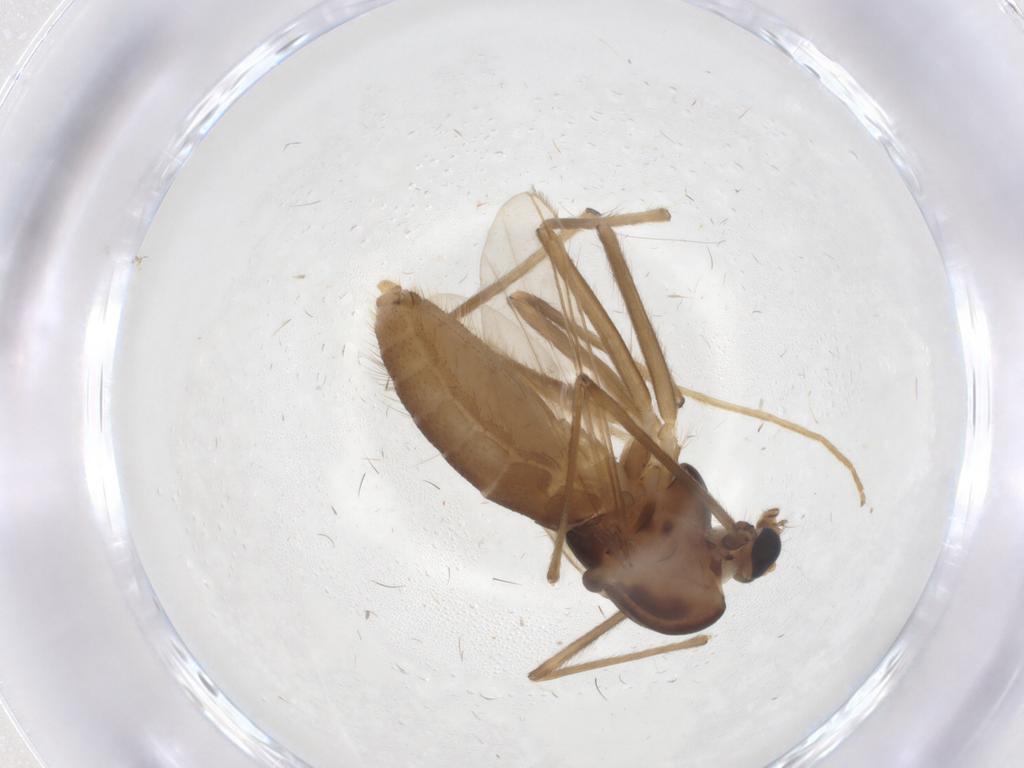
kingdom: Animalia
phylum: Arthropoda
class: Insecta
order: Diptera
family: Chironomidae
